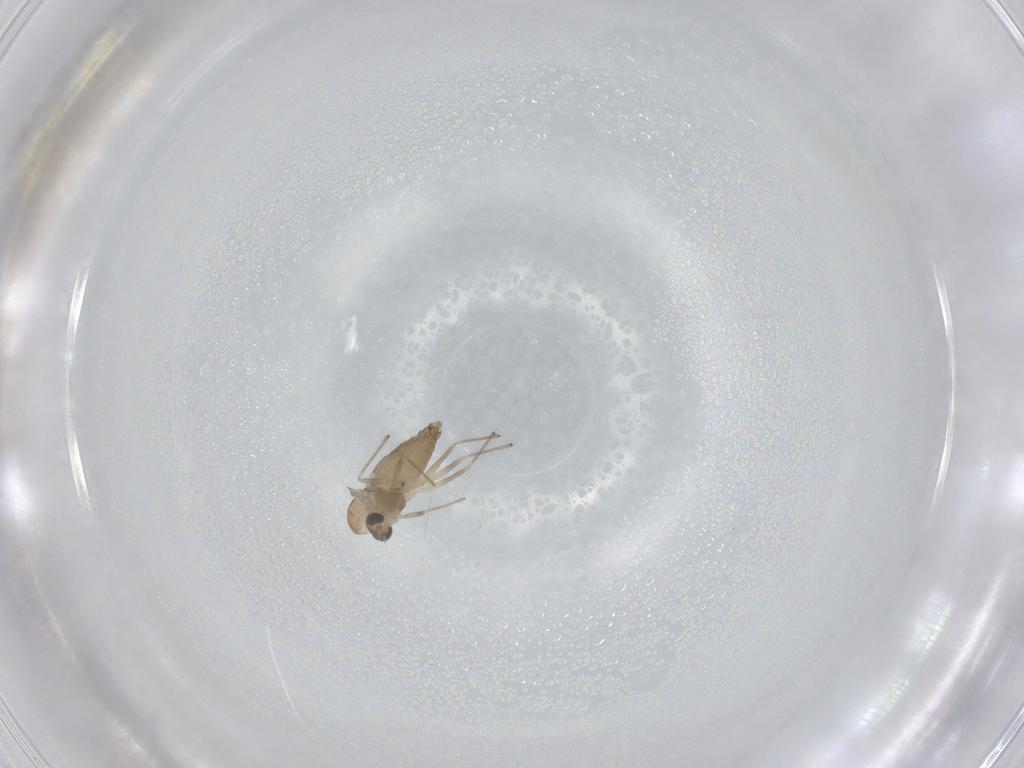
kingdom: Animalia
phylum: Arthropoda
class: Insecta
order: Diptera
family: Chironomidae
